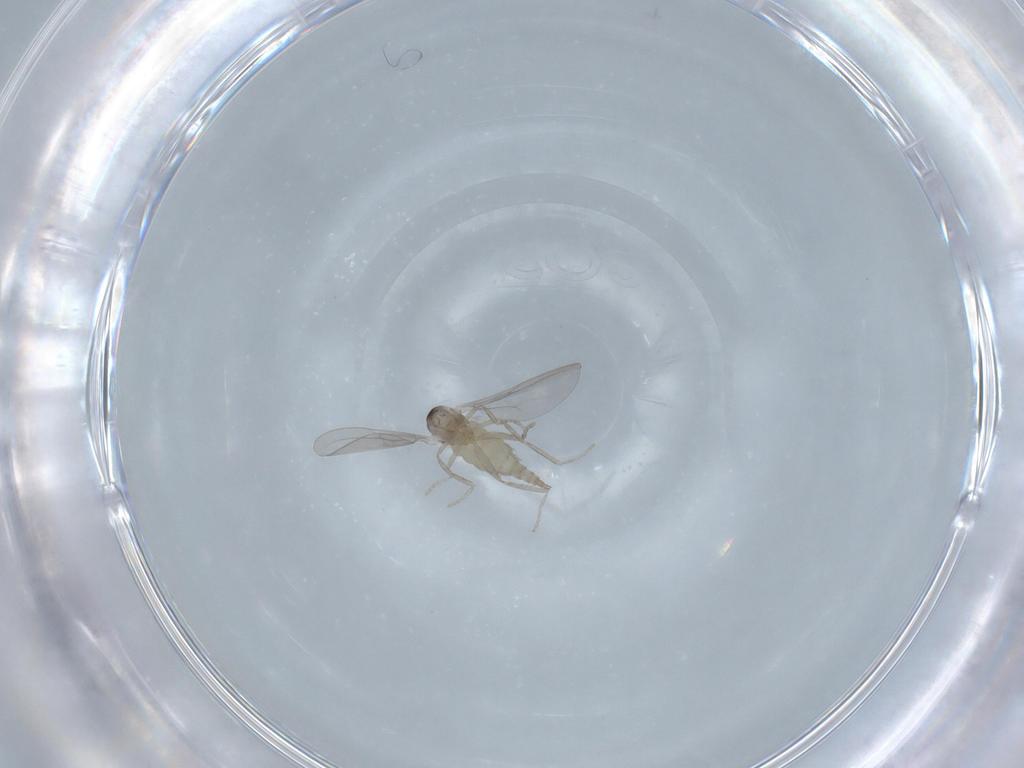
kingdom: Animalia
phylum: Arthropoda
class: Insecta
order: Diptera
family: Cecidomyiidae
